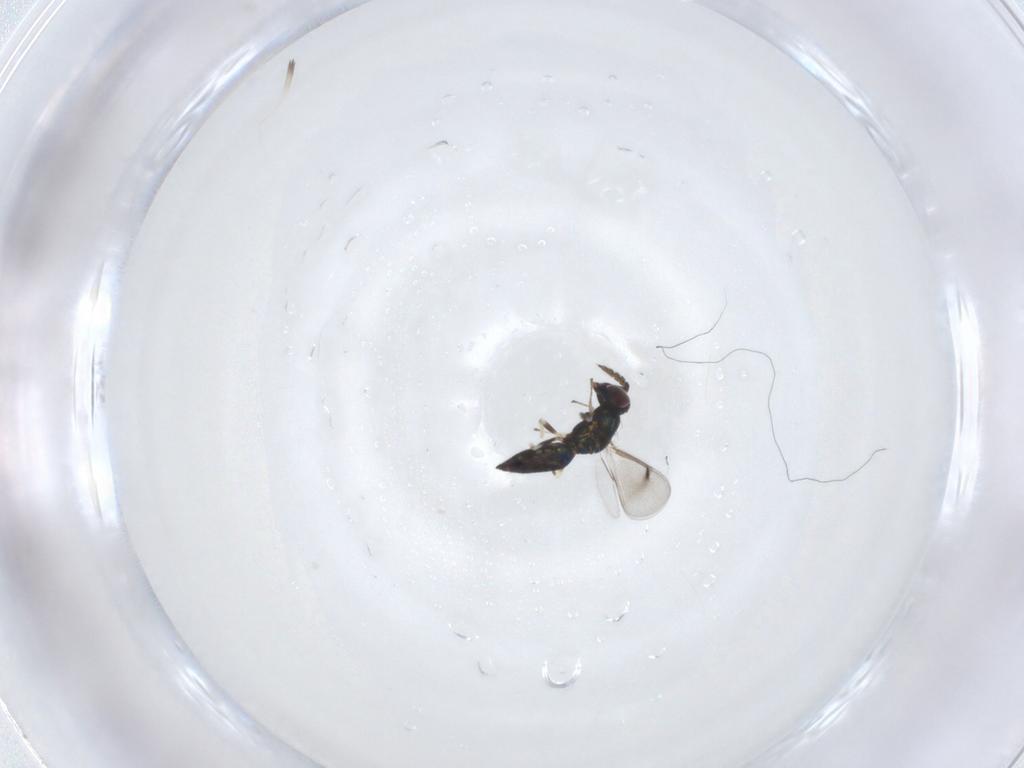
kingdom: Animalia
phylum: Arthropoda
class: Insecta
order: Hymenoptera
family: Eulophidae
